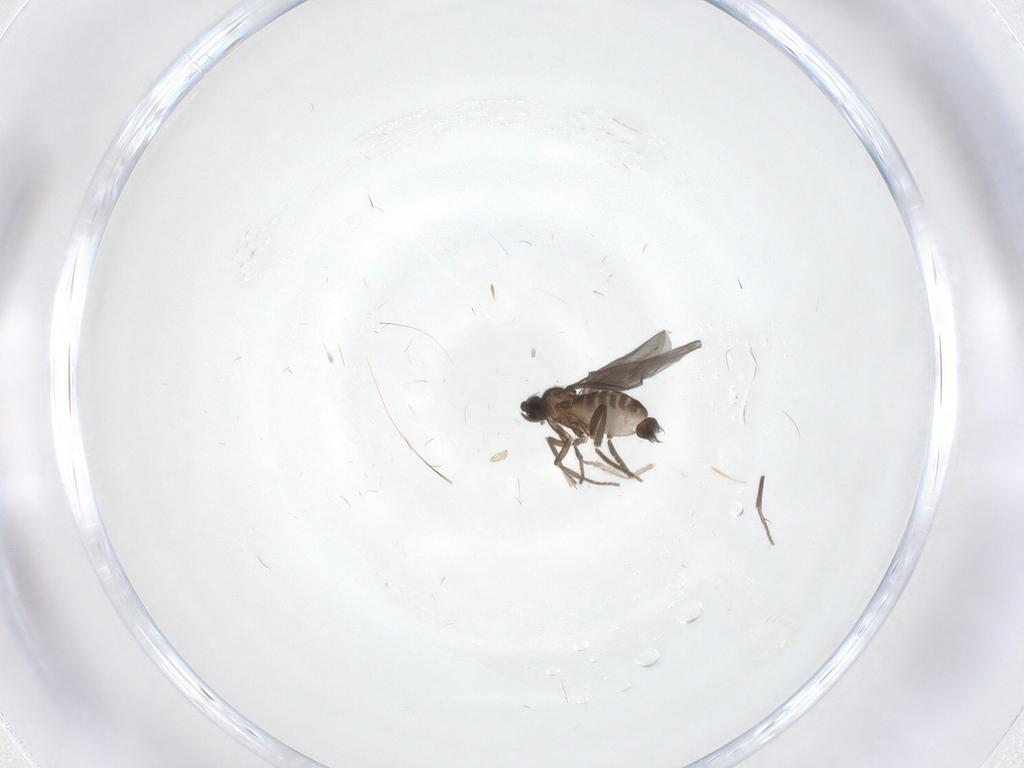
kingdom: Animalia
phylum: Arthropoda
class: Insecta
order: Diptera
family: Phoridae
